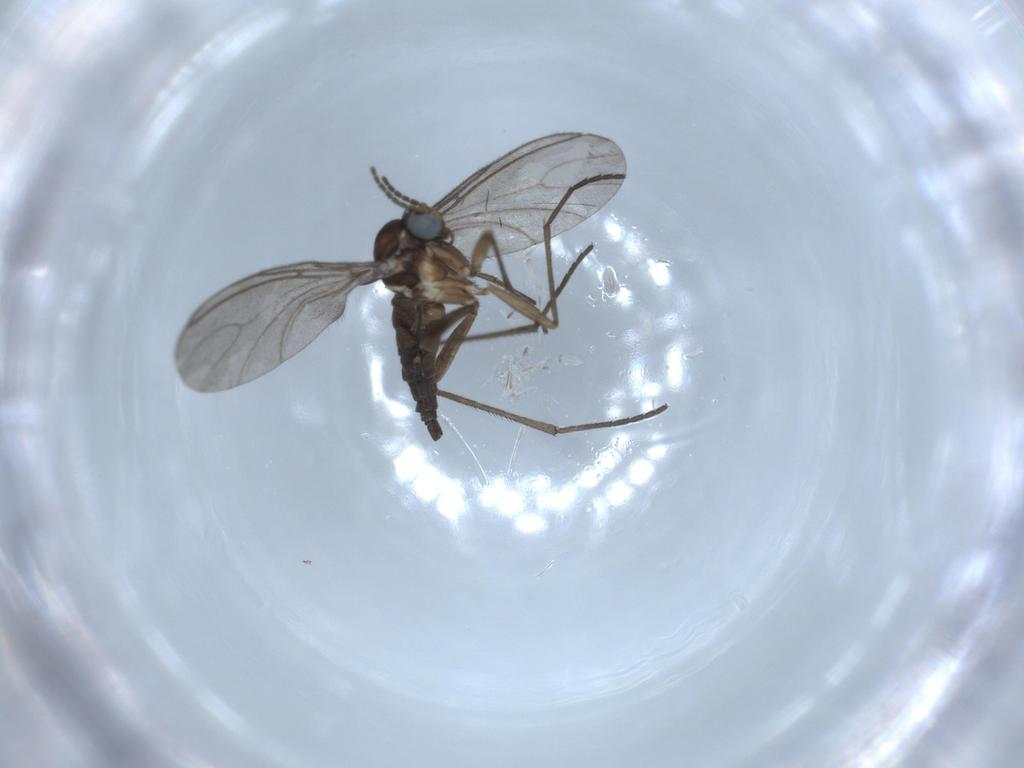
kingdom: Animalia
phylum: Arthropoda
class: Insecta
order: Diptera
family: Sciaridae
